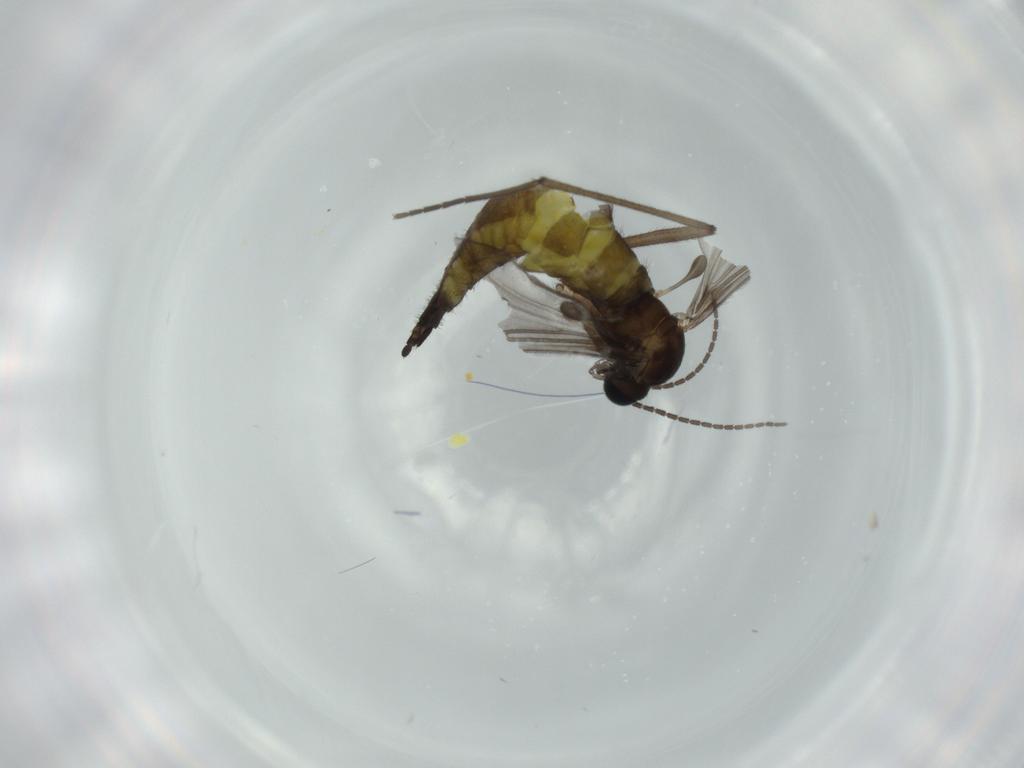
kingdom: Animalia
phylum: Arthropoda
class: Insecta
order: Diptera
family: Sciaridae
